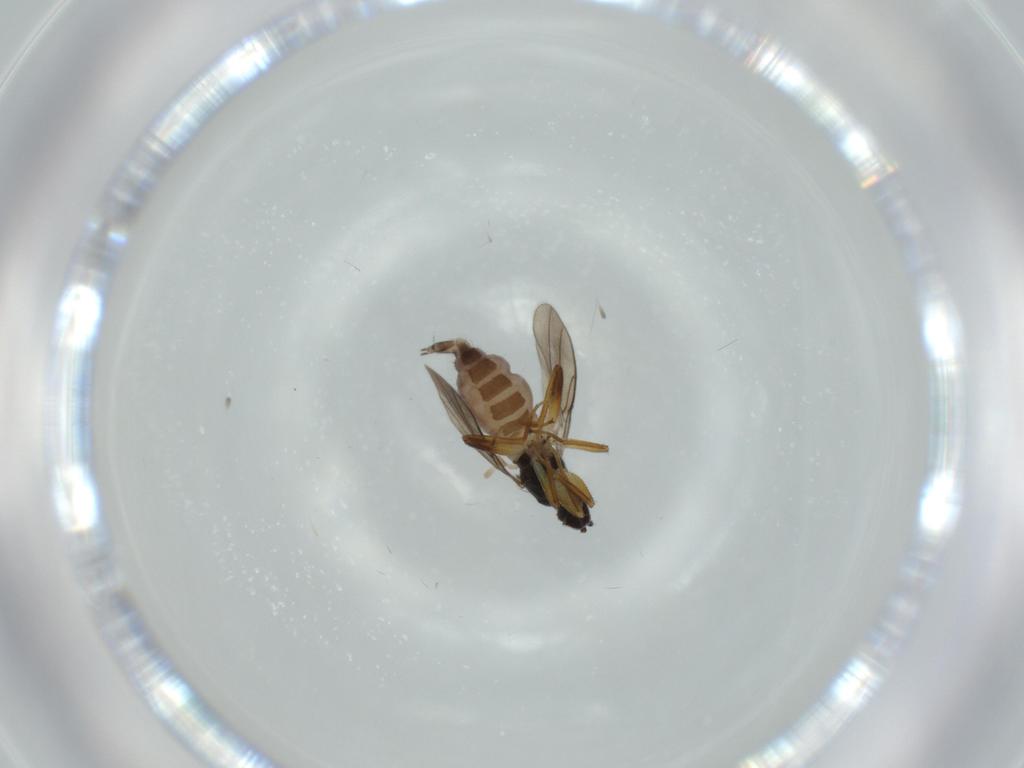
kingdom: Animalia
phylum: Arthropoda
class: Insecta
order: Diptera
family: Hybotidae
